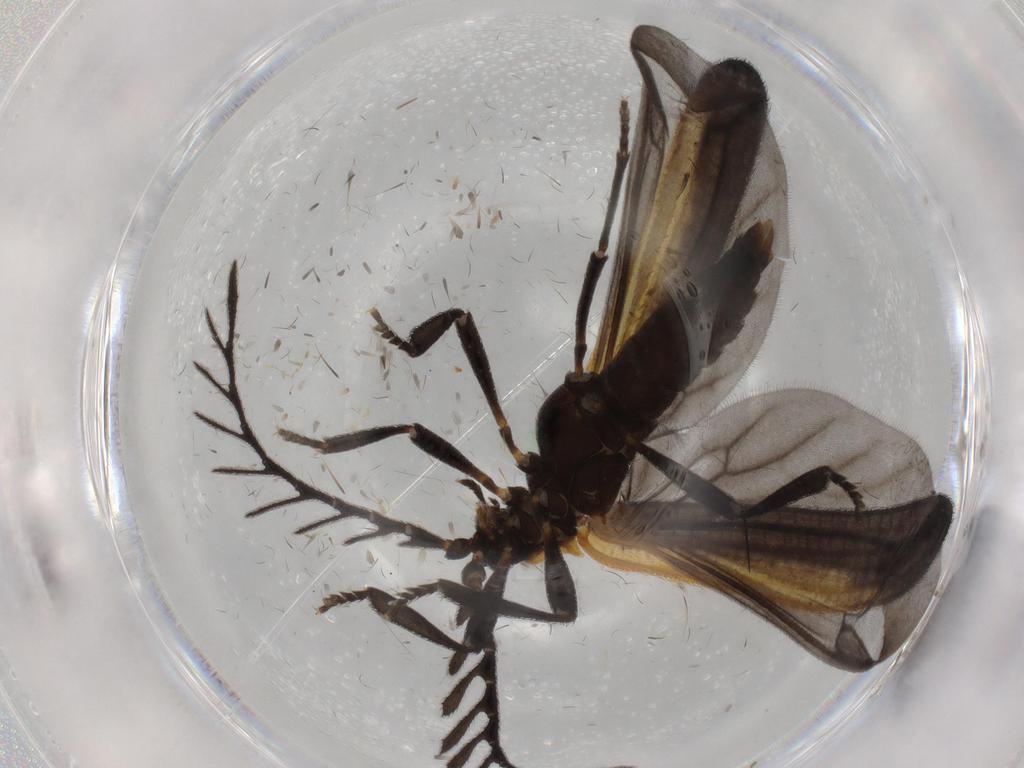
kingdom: Animalia
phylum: Arthropoda
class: Insecta
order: Coleoptera
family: Lycidae
